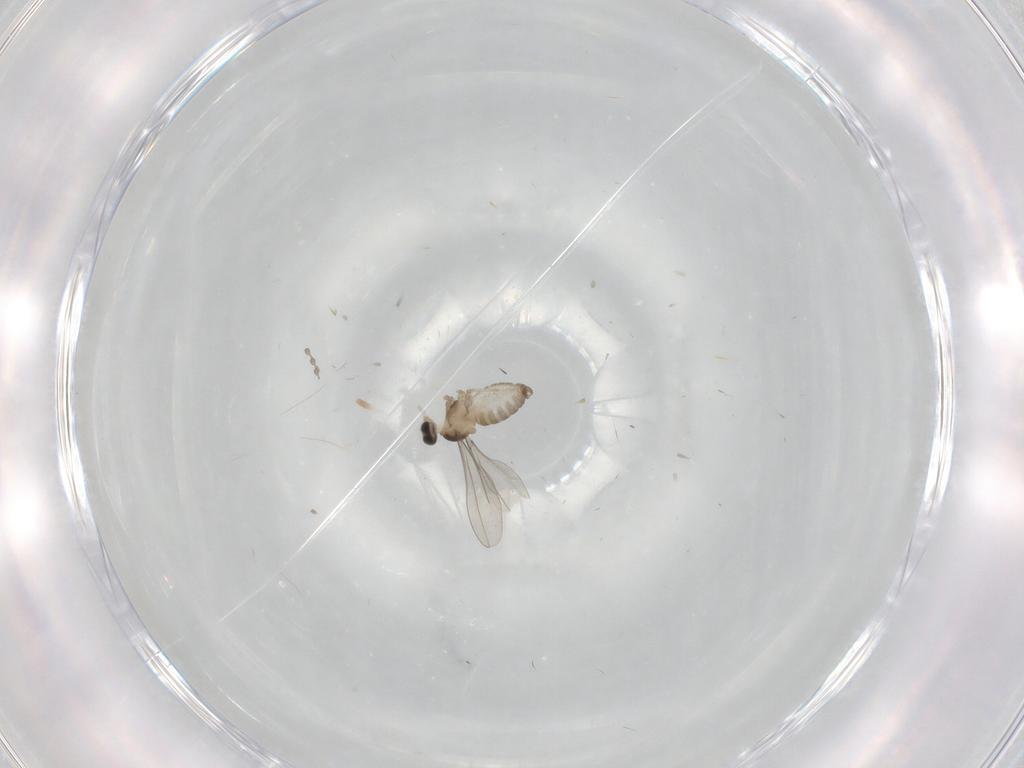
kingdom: Animalia
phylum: Arthropoda
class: Insecta
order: Diptera
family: Cecidomyiidae
